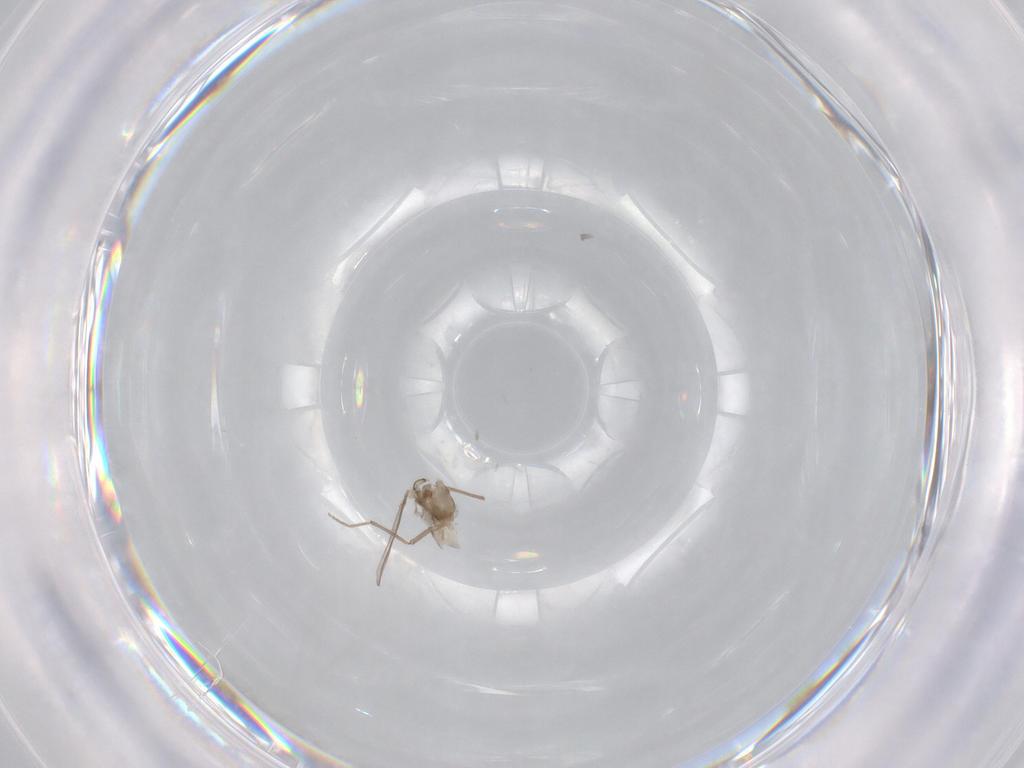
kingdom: Animalia
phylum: Arthropoda
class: Insecta
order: Diptera
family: Chironomidae
